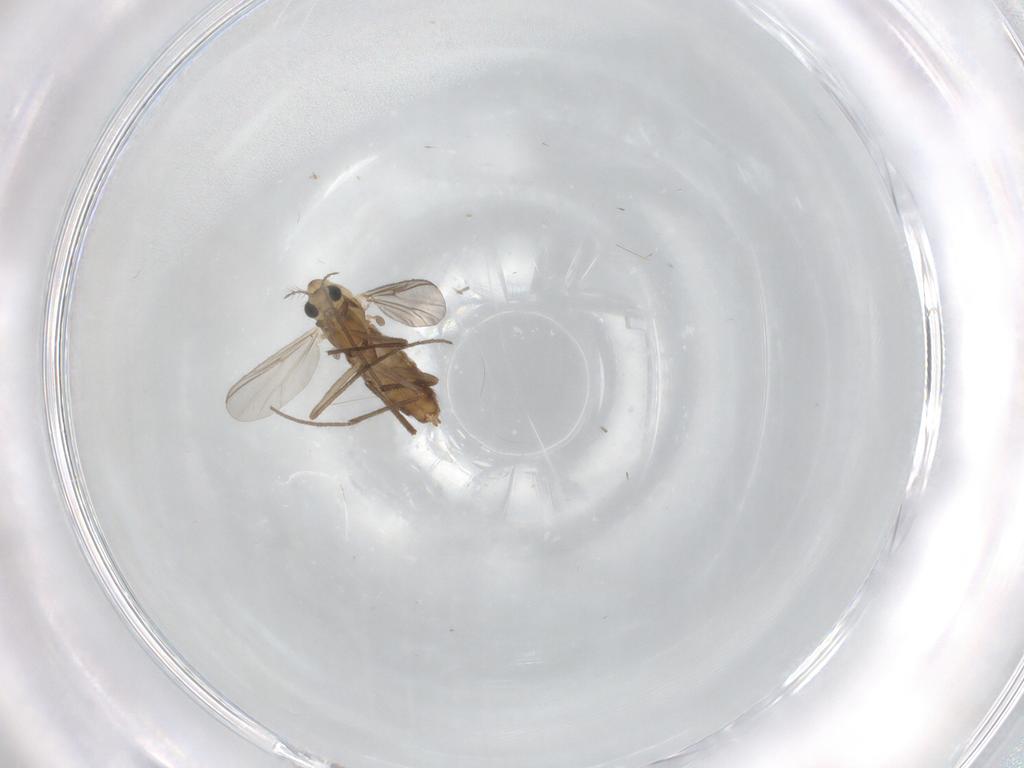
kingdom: Animalia
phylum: Arthropoda
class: Insecta
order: Diptera
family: Chironomidae
